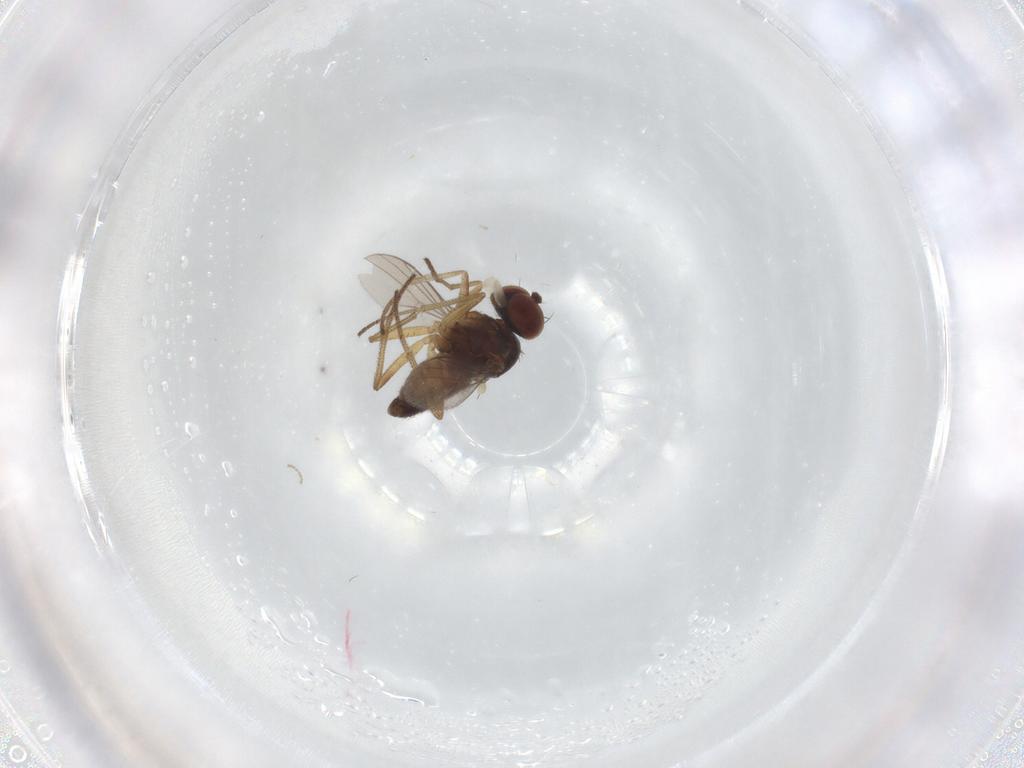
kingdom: Animalia
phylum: Arthropoda
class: Insecta
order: Diptera
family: Dolichopodidae
